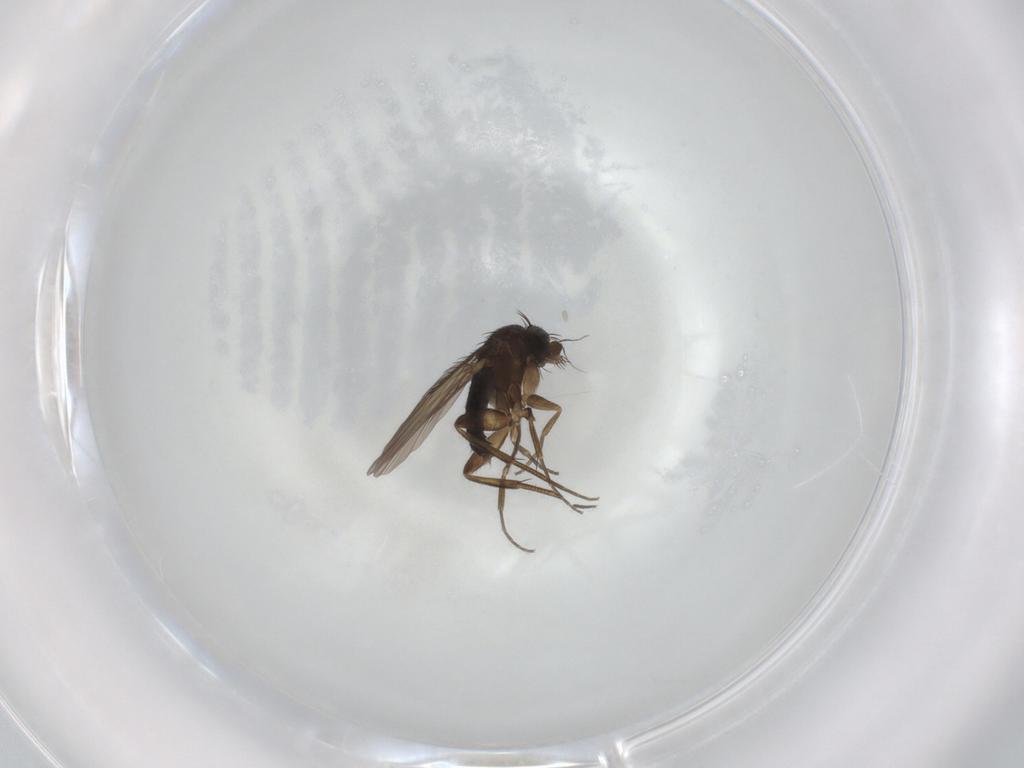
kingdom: Animalia
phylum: Arthropoda
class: Insecta
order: Diptera
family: Phoridae
